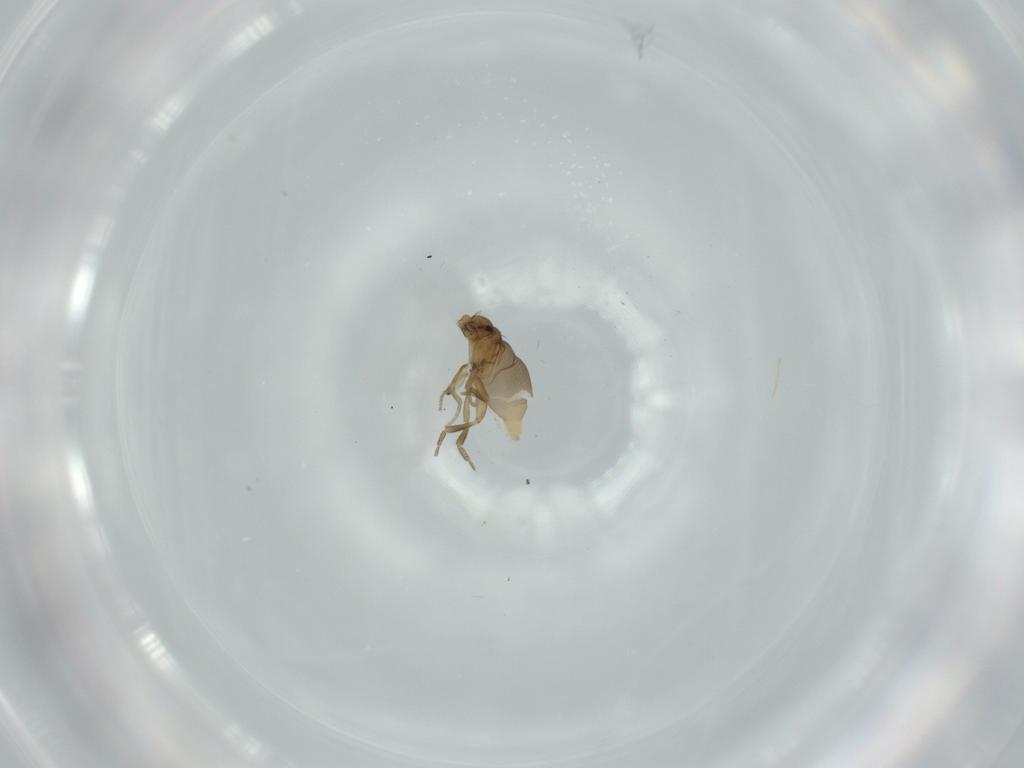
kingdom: Animalia
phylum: Arthropoda
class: Insecta
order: Diptera
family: Phoridae
